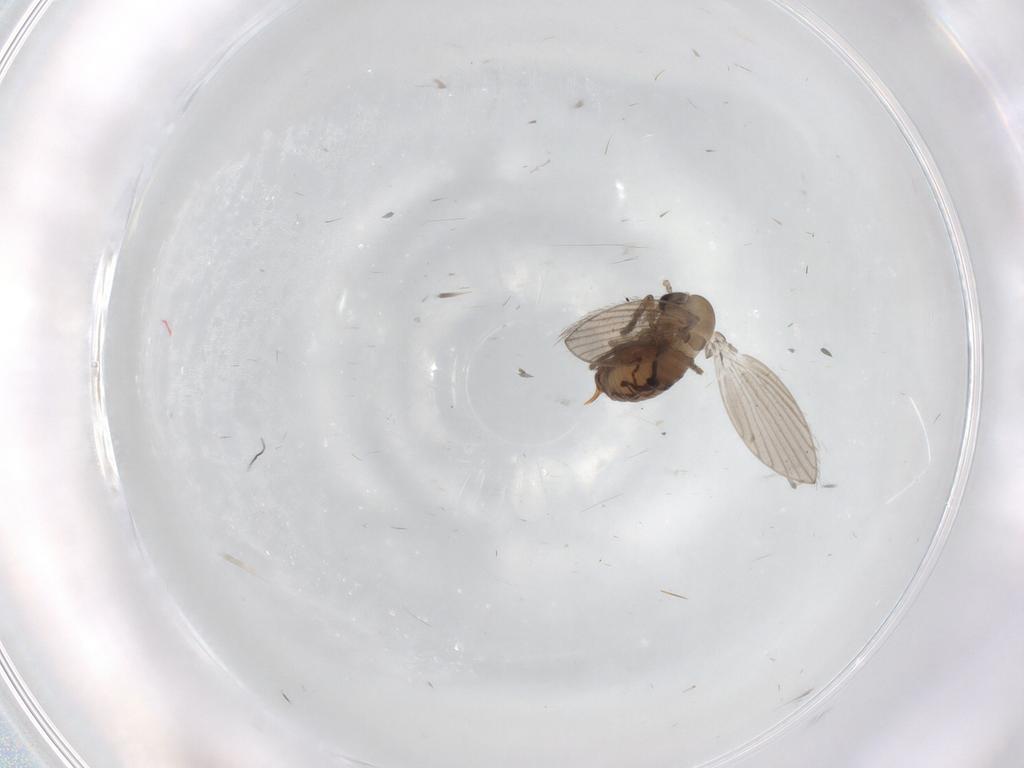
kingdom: Animalia
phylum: Arthropoda
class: Insecta
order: Diptera
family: Psychodidae
